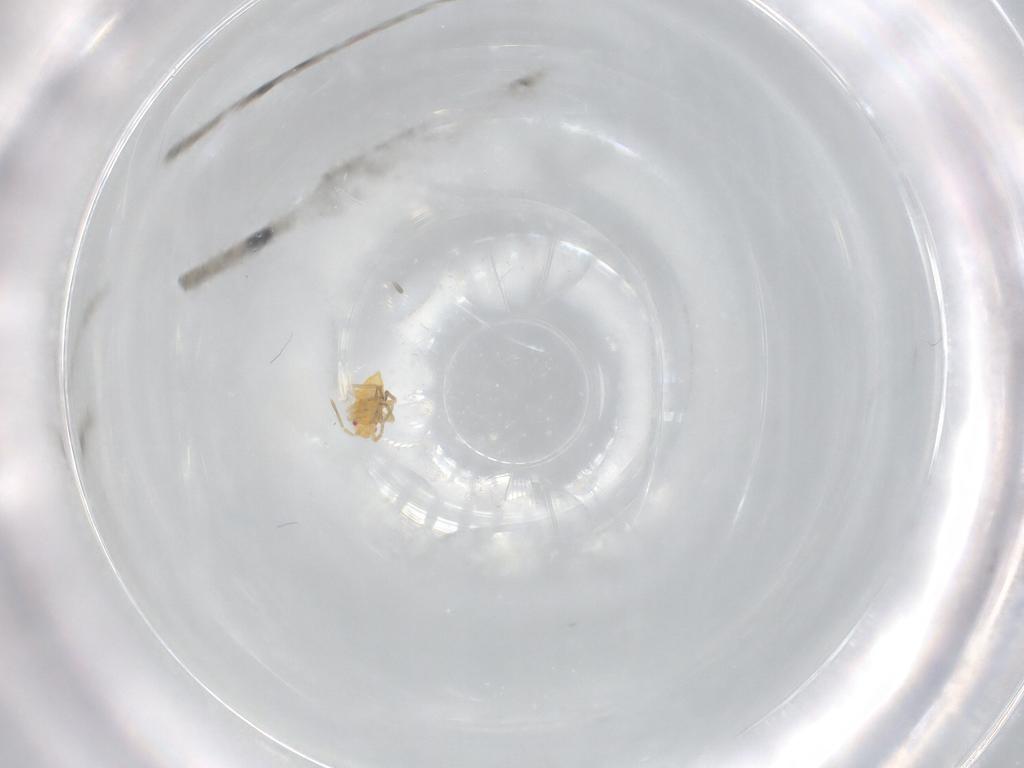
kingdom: Animalia
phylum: Arthropoda
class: Insecta
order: Hemiptera
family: Miridae
